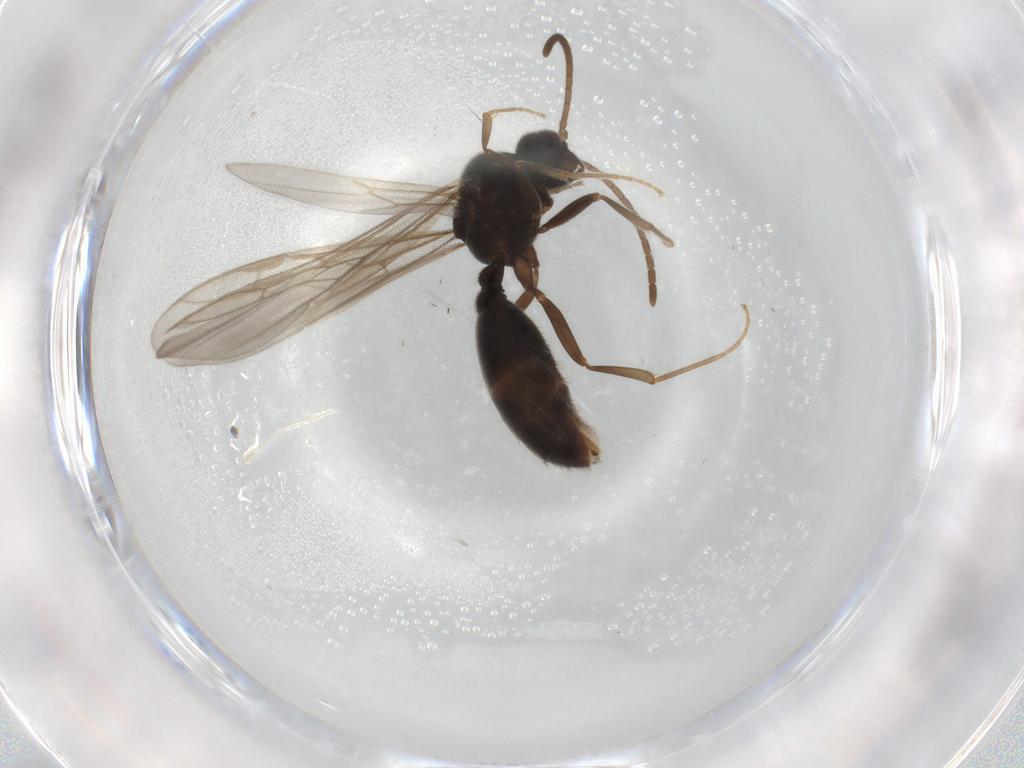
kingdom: Animalia
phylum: Arthropoda
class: Insecta
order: Hymenoptera
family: Formicidae
